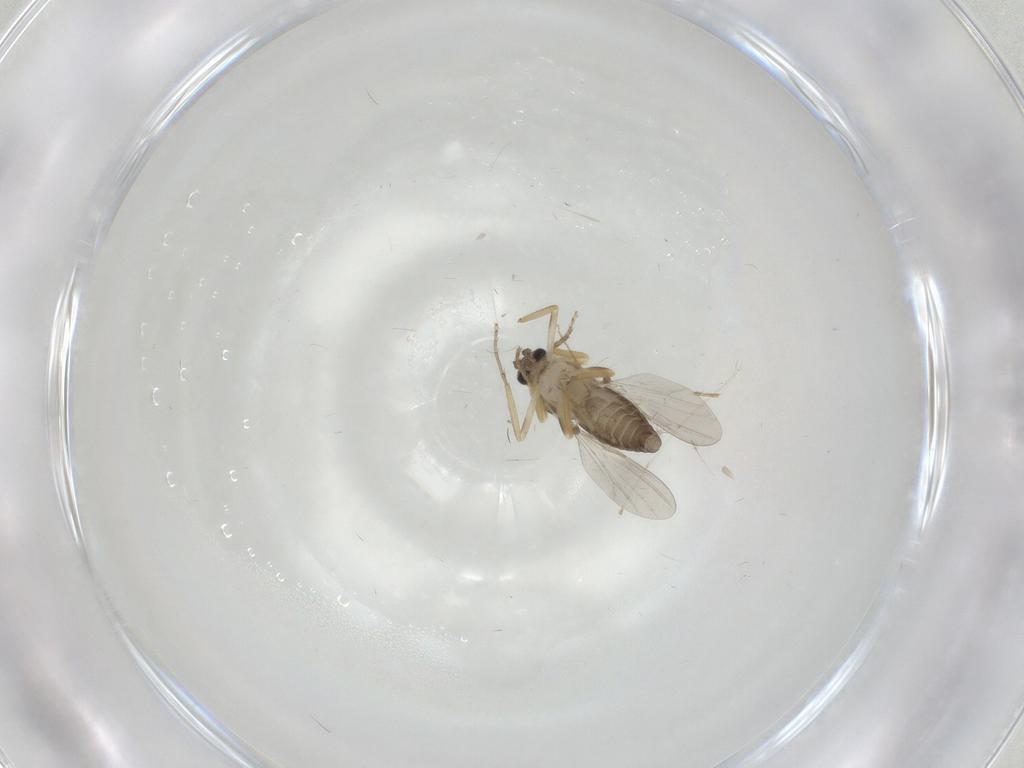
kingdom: Animalia
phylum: Arthropoda
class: Insecta
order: Diptera
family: Ceratopogonidae
